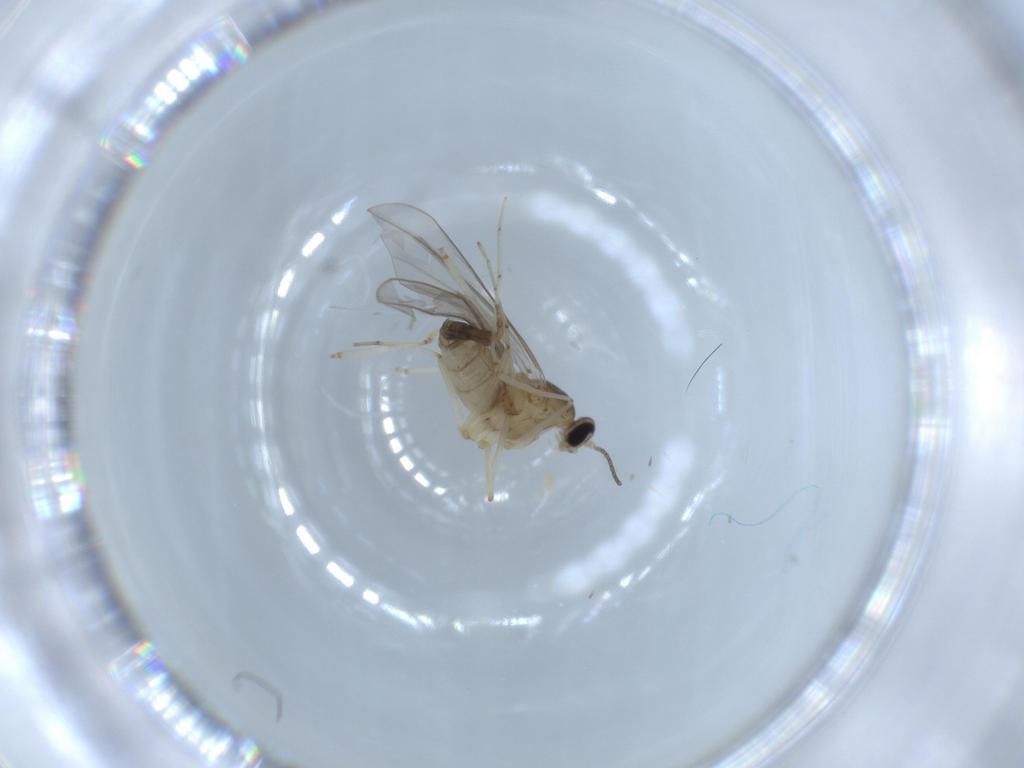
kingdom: Animalia
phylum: Arthropoda
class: Insecta
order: Diptera
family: Cecidomyiidae
